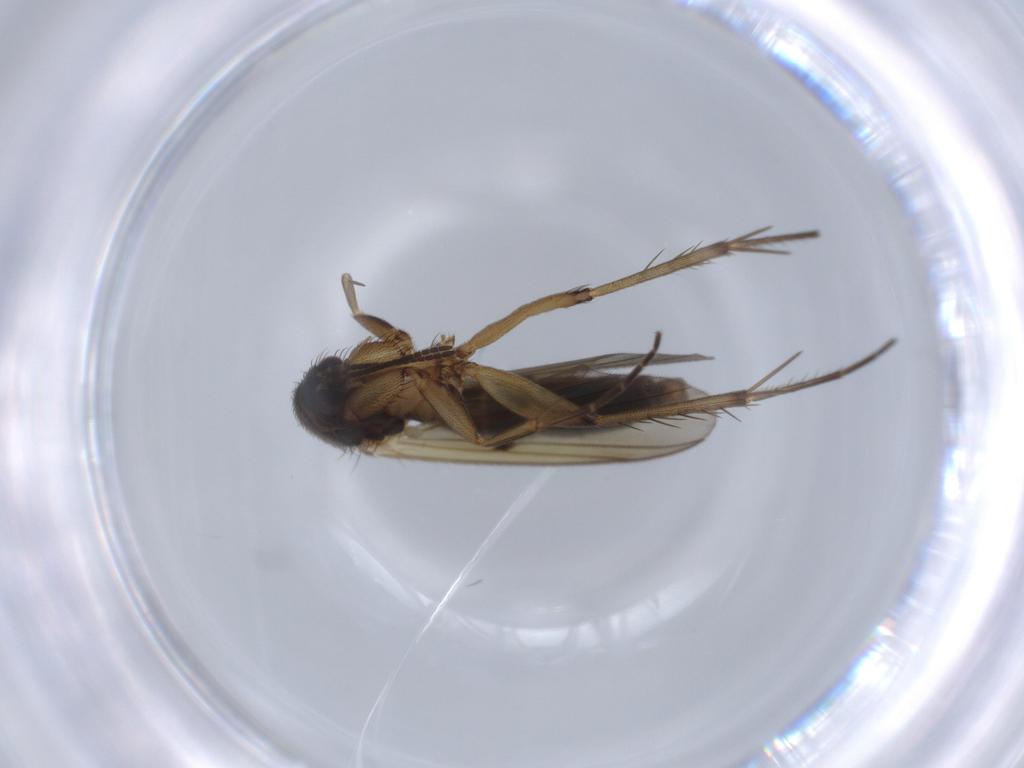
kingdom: Animalia
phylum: Arthropoda
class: Insecta
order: Diptera
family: Mycetophilidae
